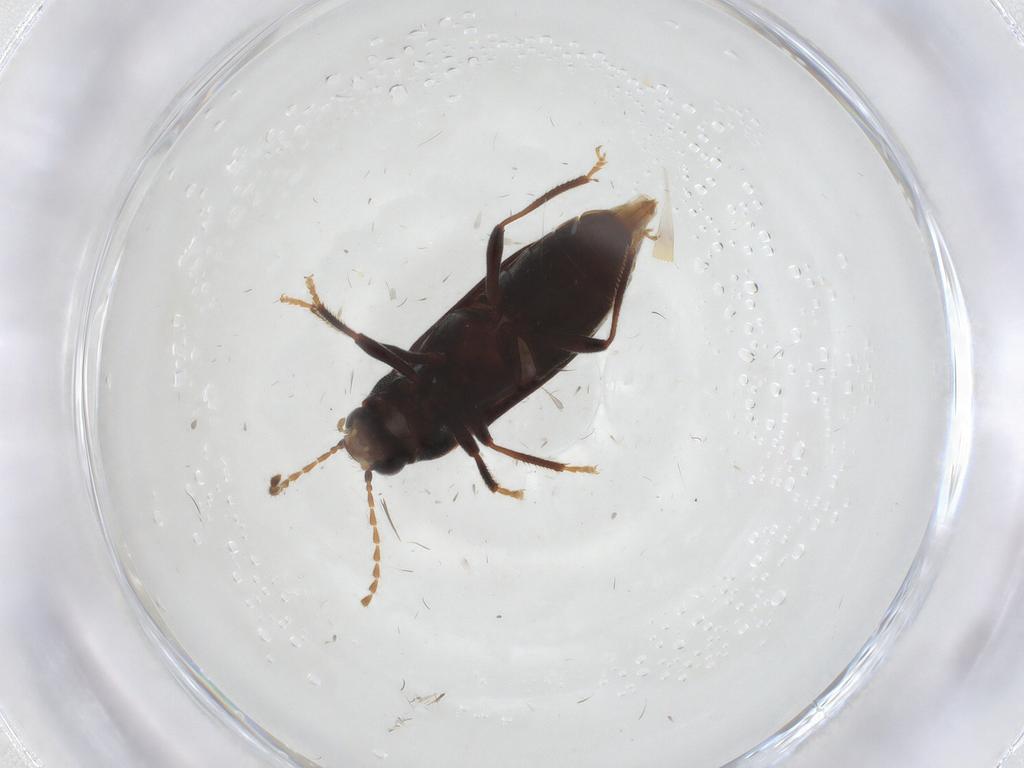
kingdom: Animalia
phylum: Arthropoda
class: Insecta
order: Coleoptera
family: Ptilodactylidae
